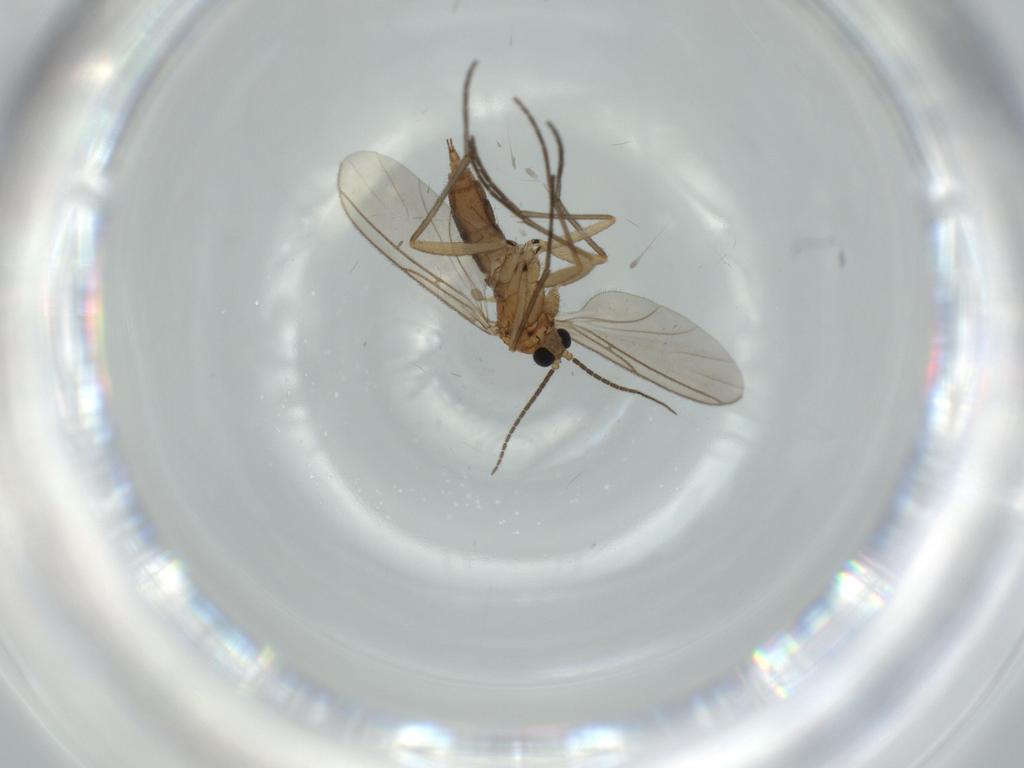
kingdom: Animalia
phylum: Arthropoda
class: Insecta
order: Diptera
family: Sciaridae
